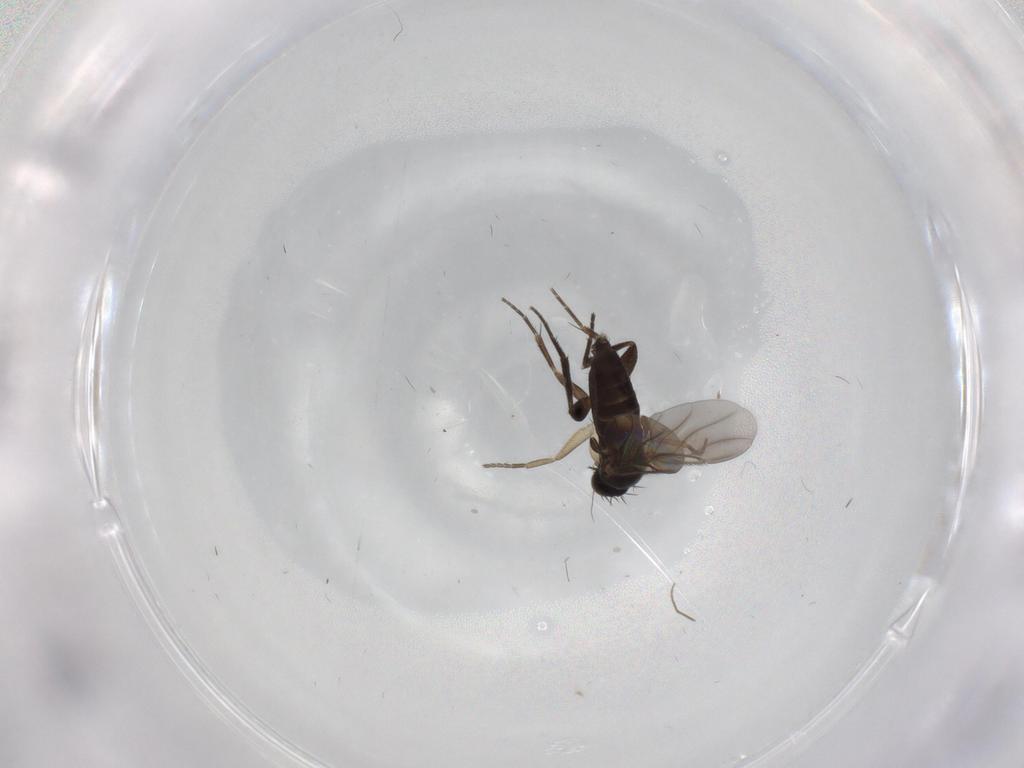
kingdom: Animalia
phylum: Arthropoda
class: Insecta
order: Diptera
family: Phoridae
